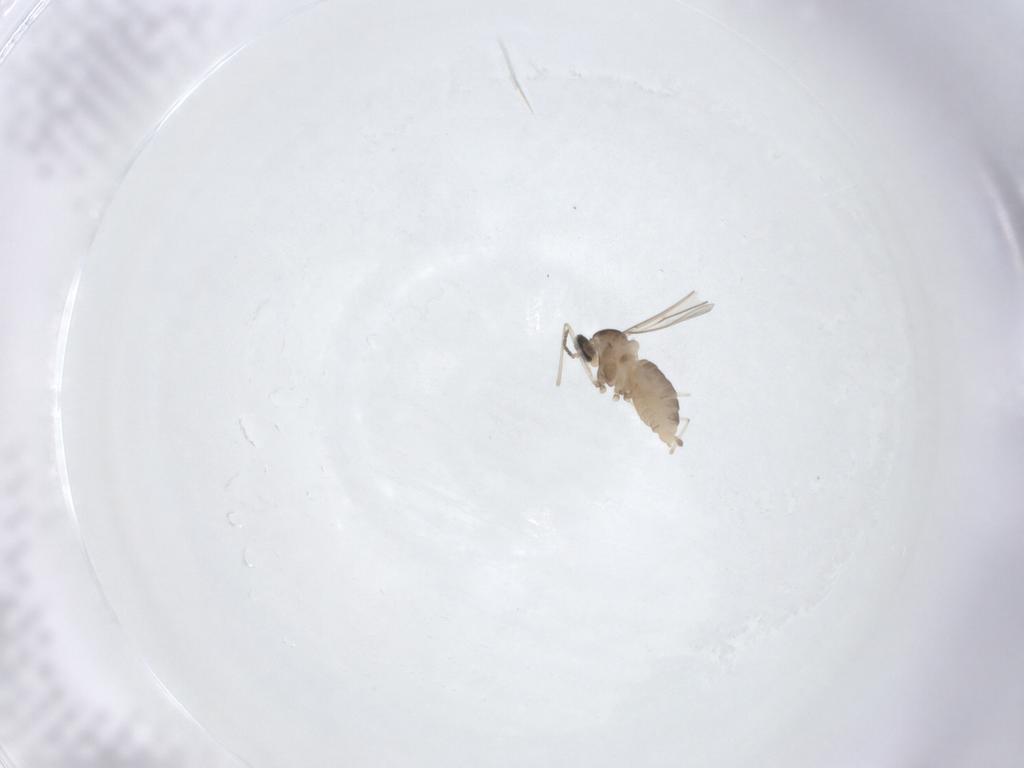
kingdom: Animalia
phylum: Arthropoda
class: Insecta
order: Diptera
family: Cecidomyiidae
